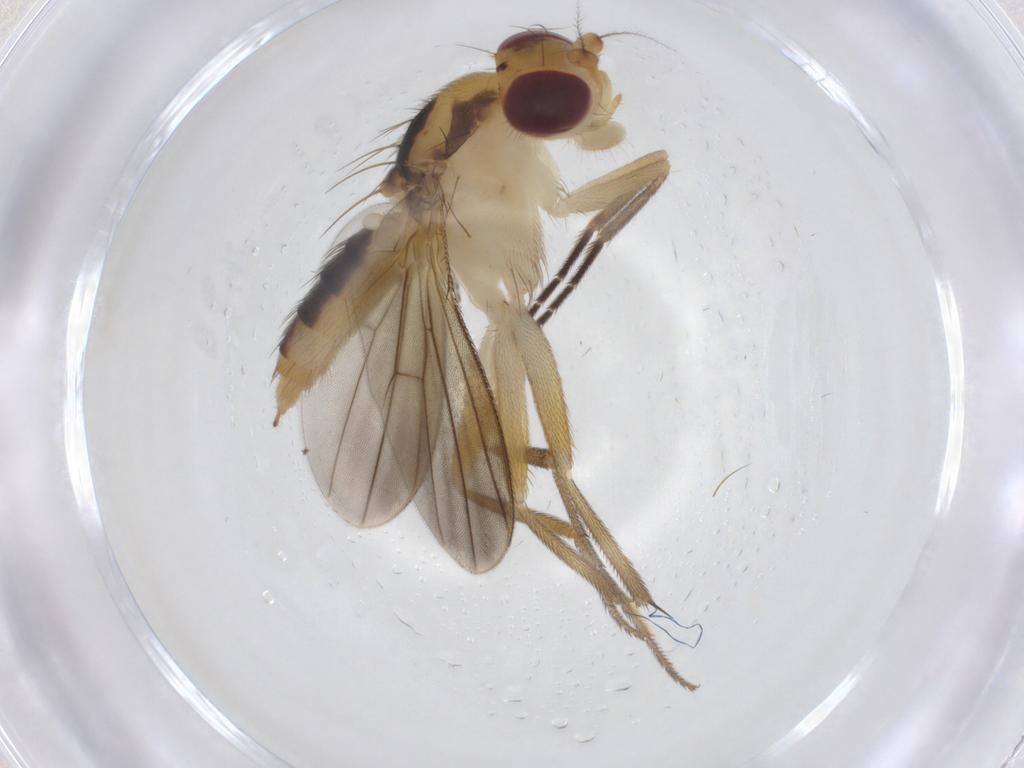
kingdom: Animalia
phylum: Arthropoda
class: Insecta
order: Diptera
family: Clusiidae
